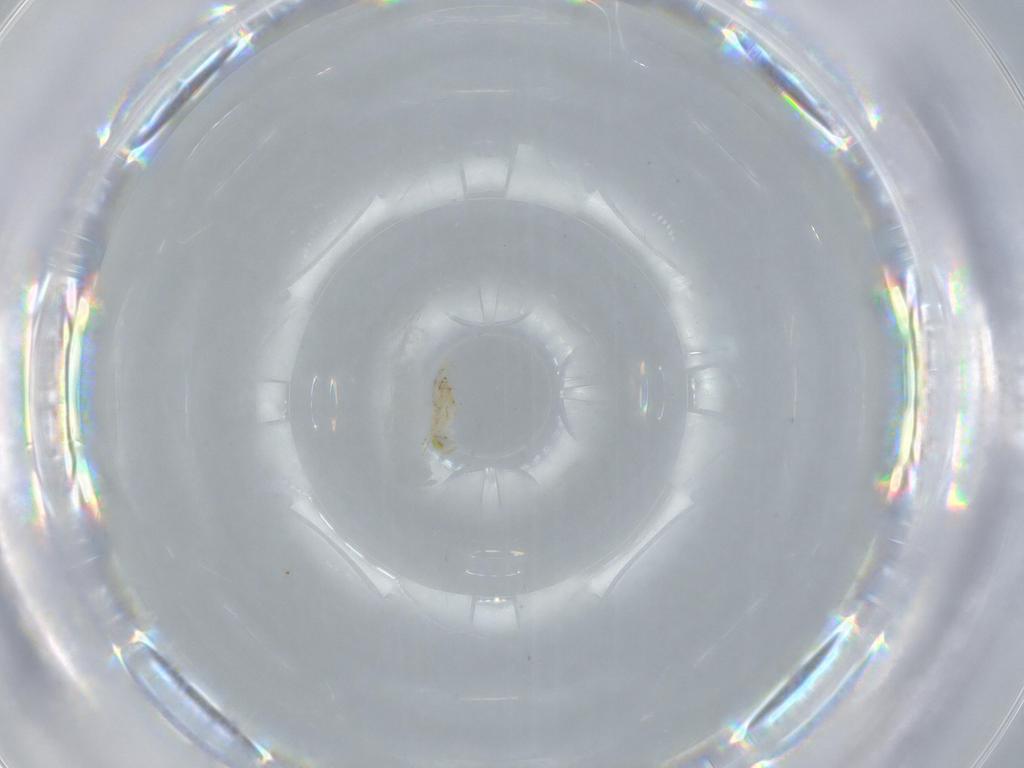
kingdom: Animalia
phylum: Arthropoda
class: Insecta
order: Hymenoptera
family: Aphelinidae
